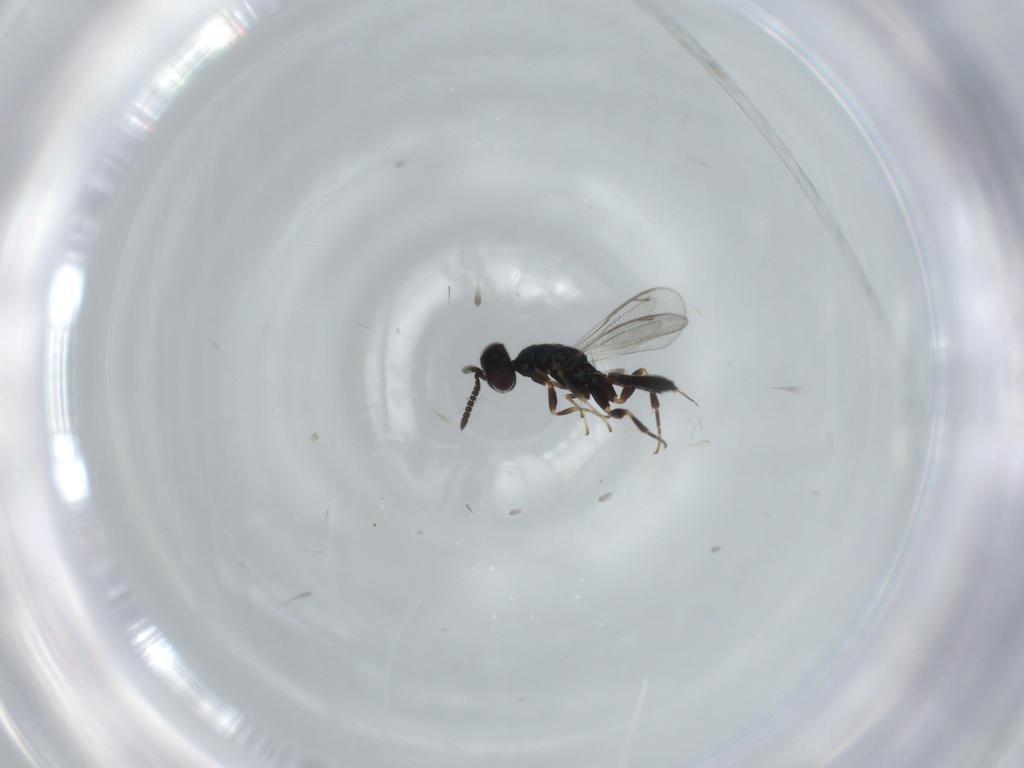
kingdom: Animalia
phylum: Arthropoda
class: Insecta
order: Hymenoptera
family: Cleonyminae
